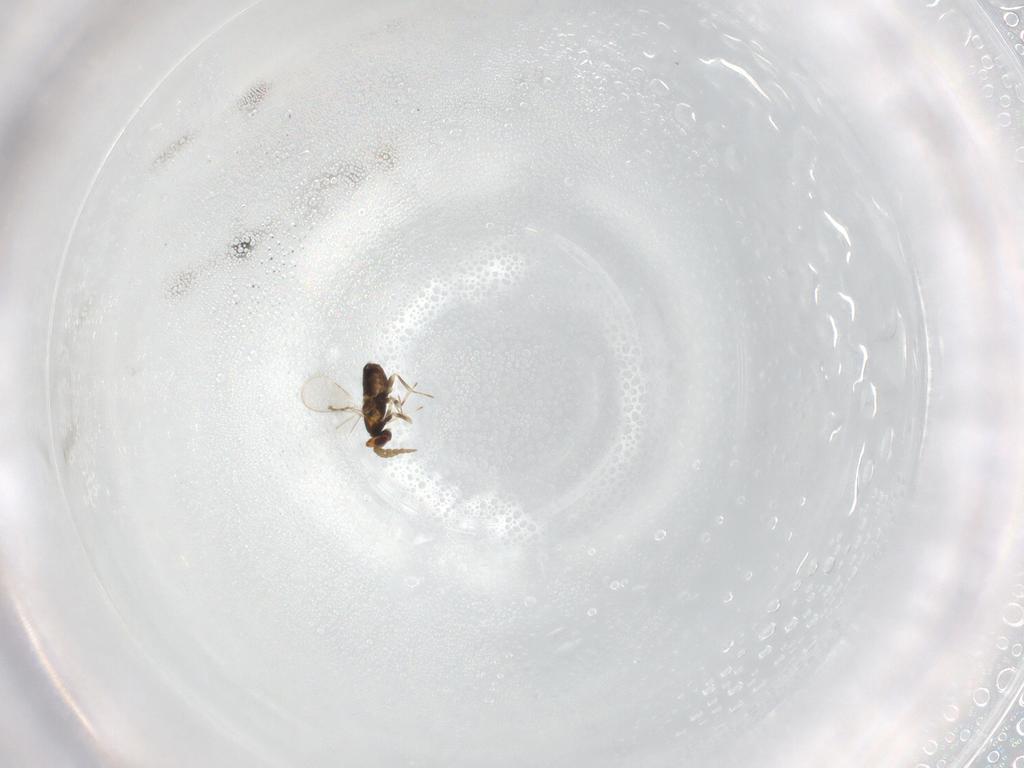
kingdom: Animalia
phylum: Arthropoda
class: Insecta
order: Hymenoptera
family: Aphelinidae
